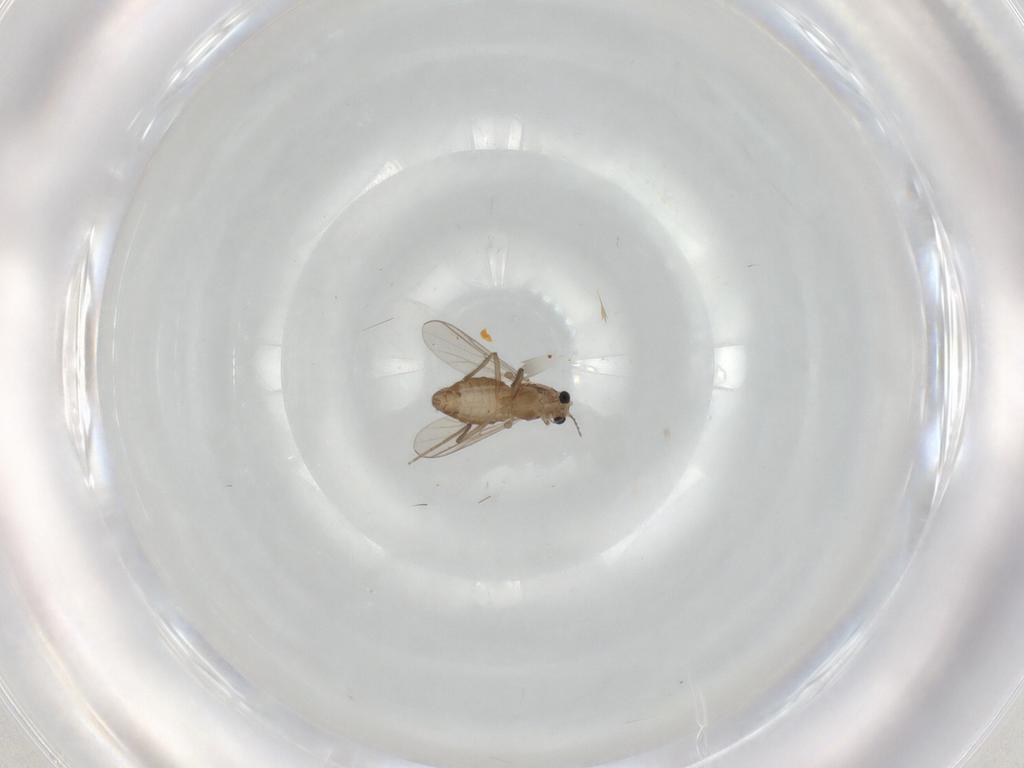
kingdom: Animalia
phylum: Arthropoda
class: Insecta
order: Diptera
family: Chironomidae
